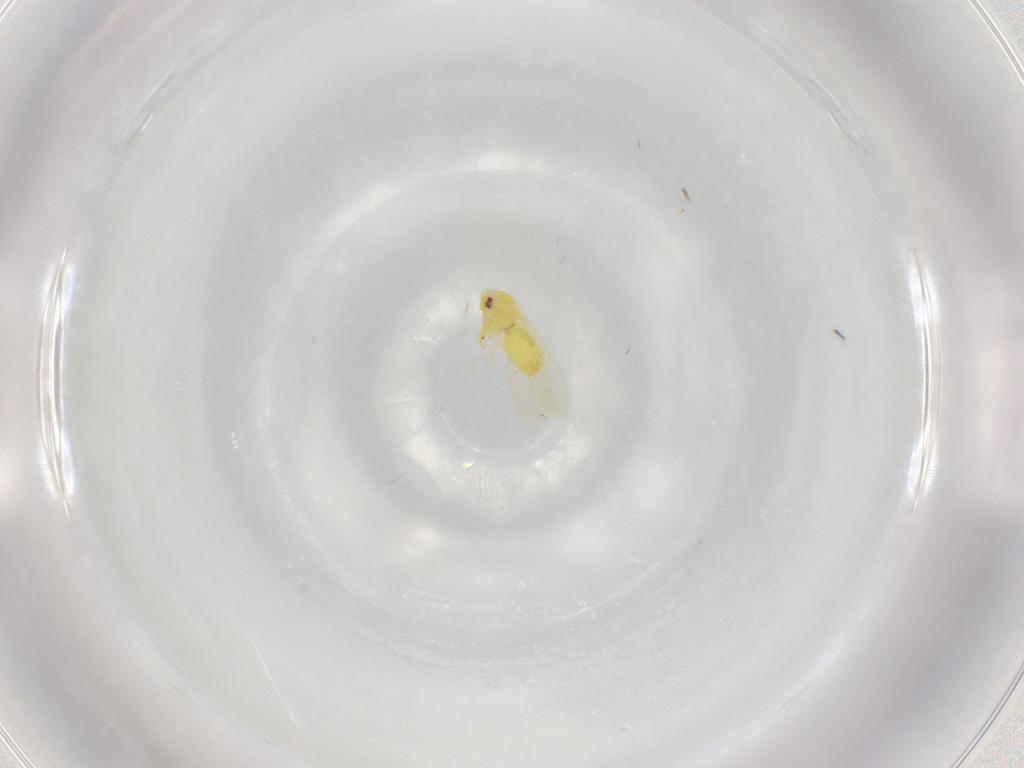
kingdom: Animalia
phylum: Arthropoda
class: Insecta
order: Hemiptera
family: Aleyrodidae
